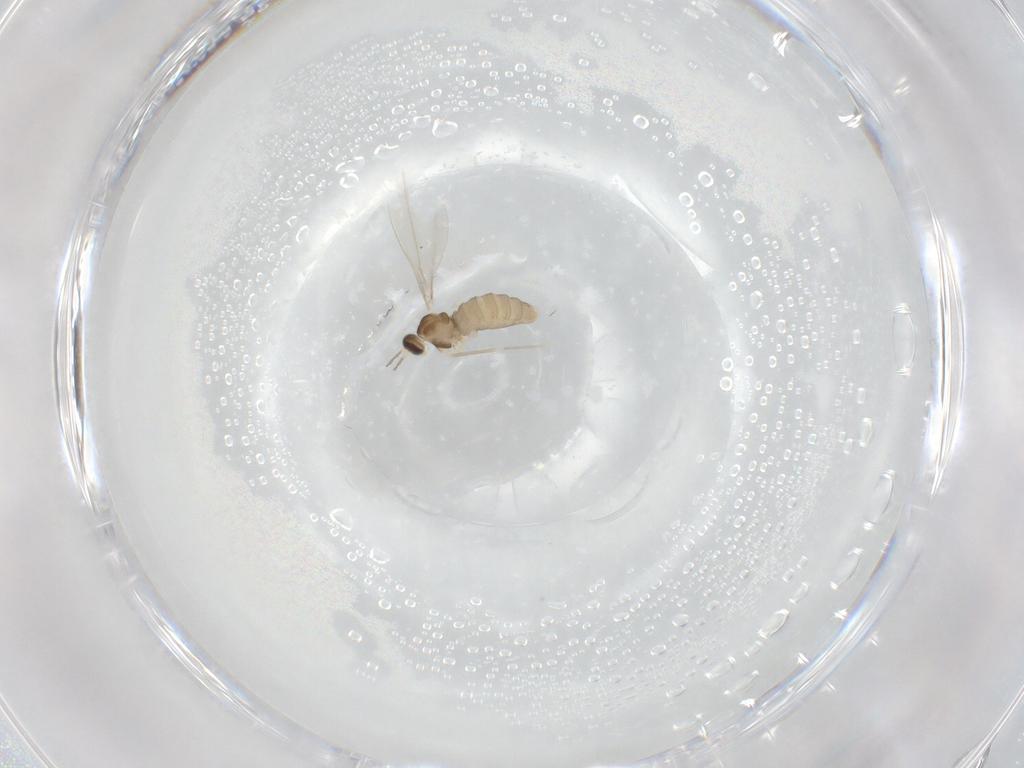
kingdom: Animalia
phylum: Arthropoda
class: Insecta
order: Diptera
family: Cecidomyiidae
